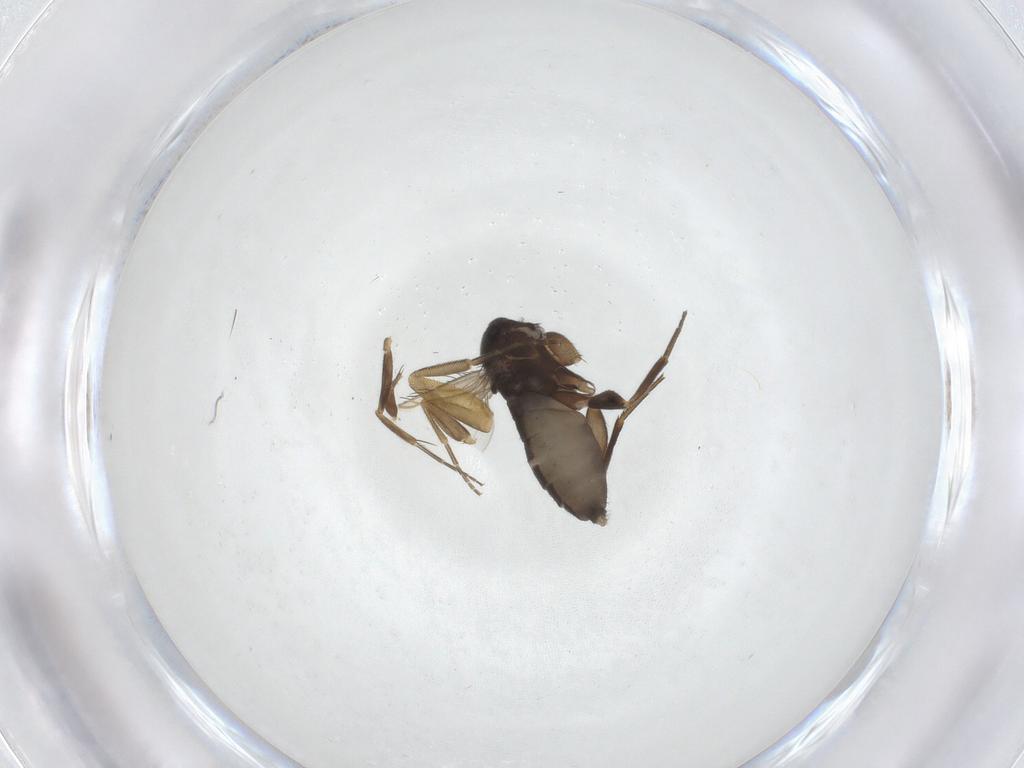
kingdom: Animalia
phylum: Arthropoda
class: Insecta
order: Diptera
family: Phoridae
